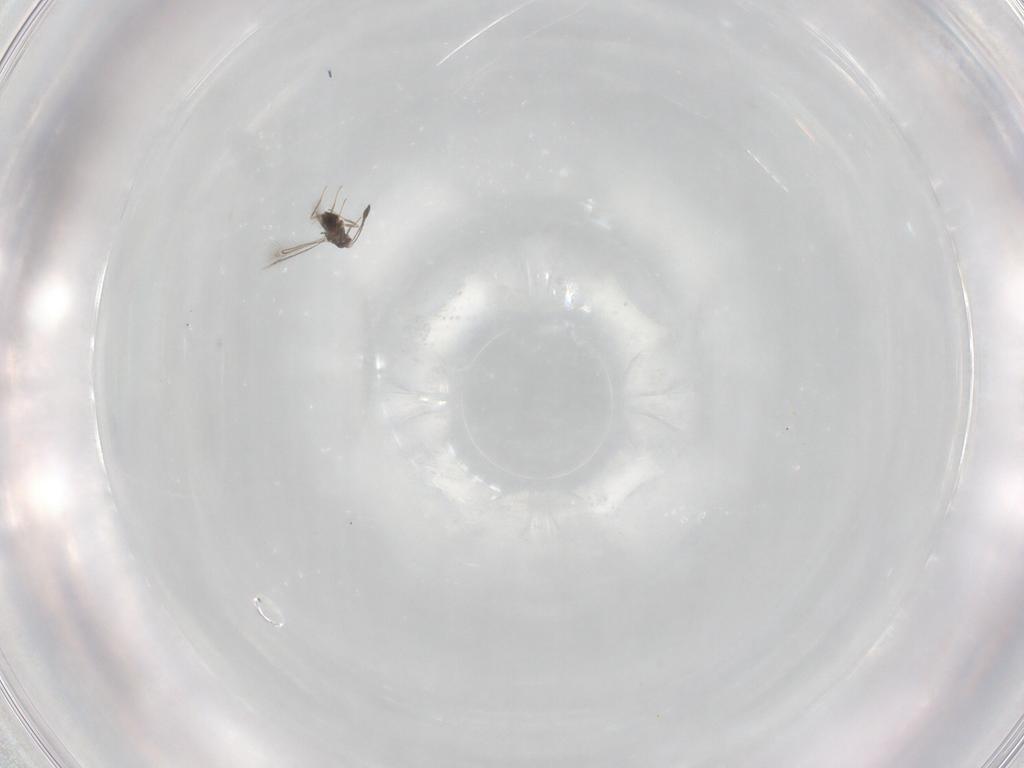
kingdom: Animalia
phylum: Arthropoda
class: Insecta
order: Hymenoptera
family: Mymaridae
